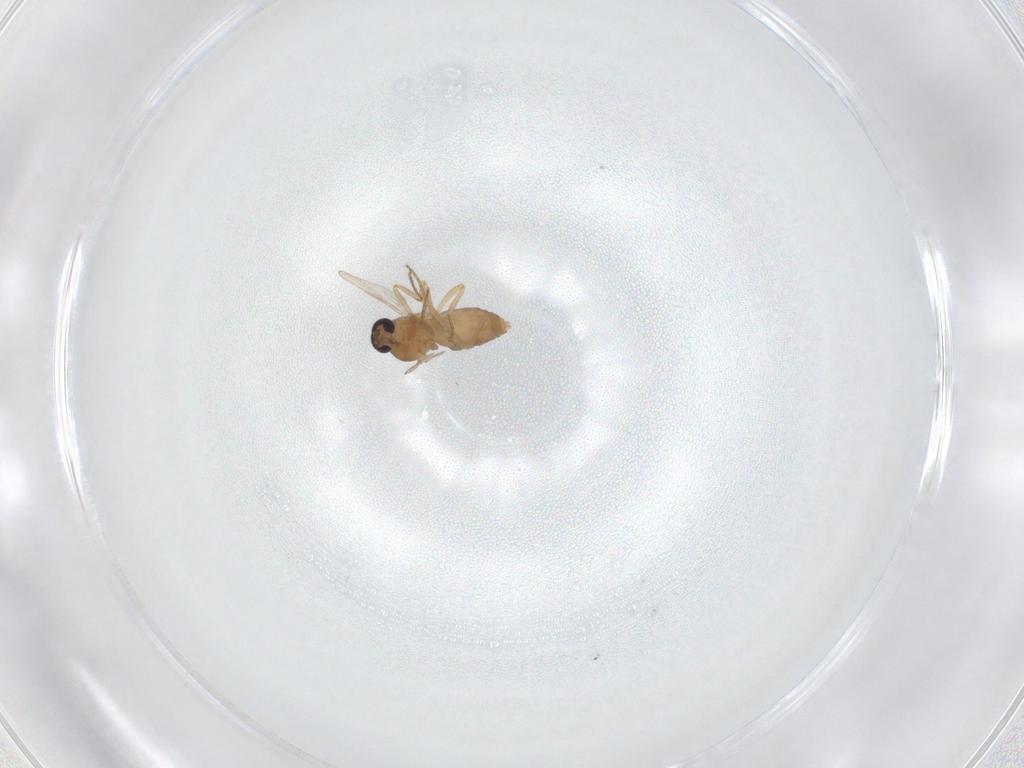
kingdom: Animalia
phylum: Arthropoda
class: Insecta
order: Diptera
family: Ceratopogonidae
